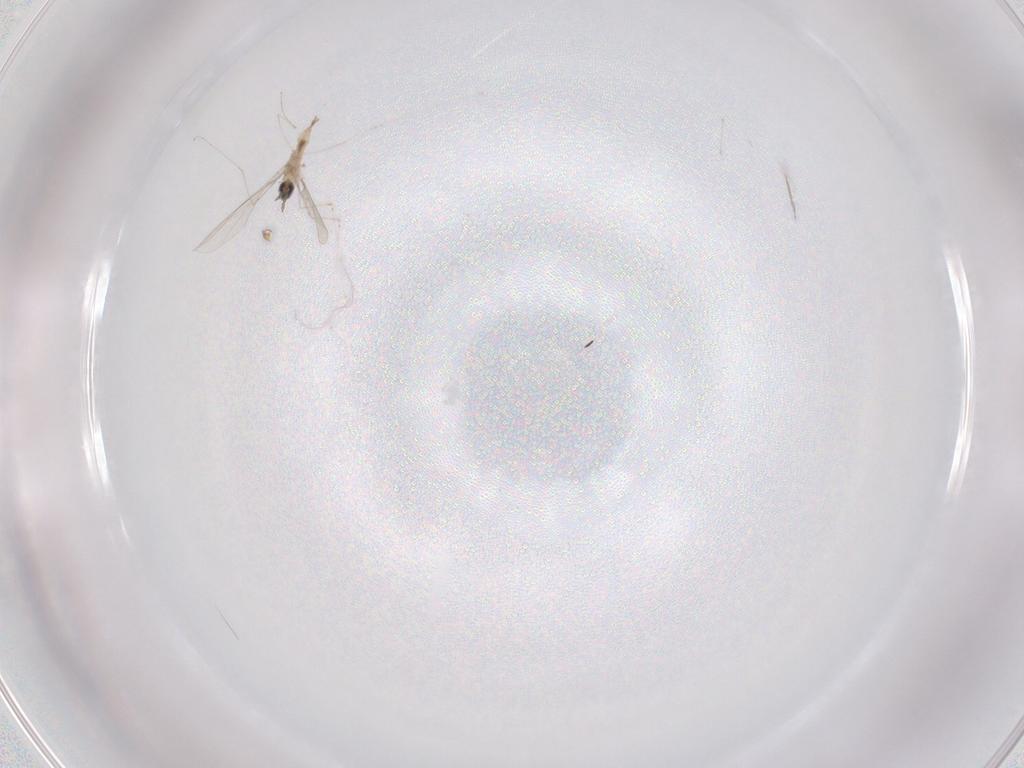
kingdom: Animalia
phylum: Arthropoda
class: Insecta
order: Diptera
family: Cecidomyiidae
